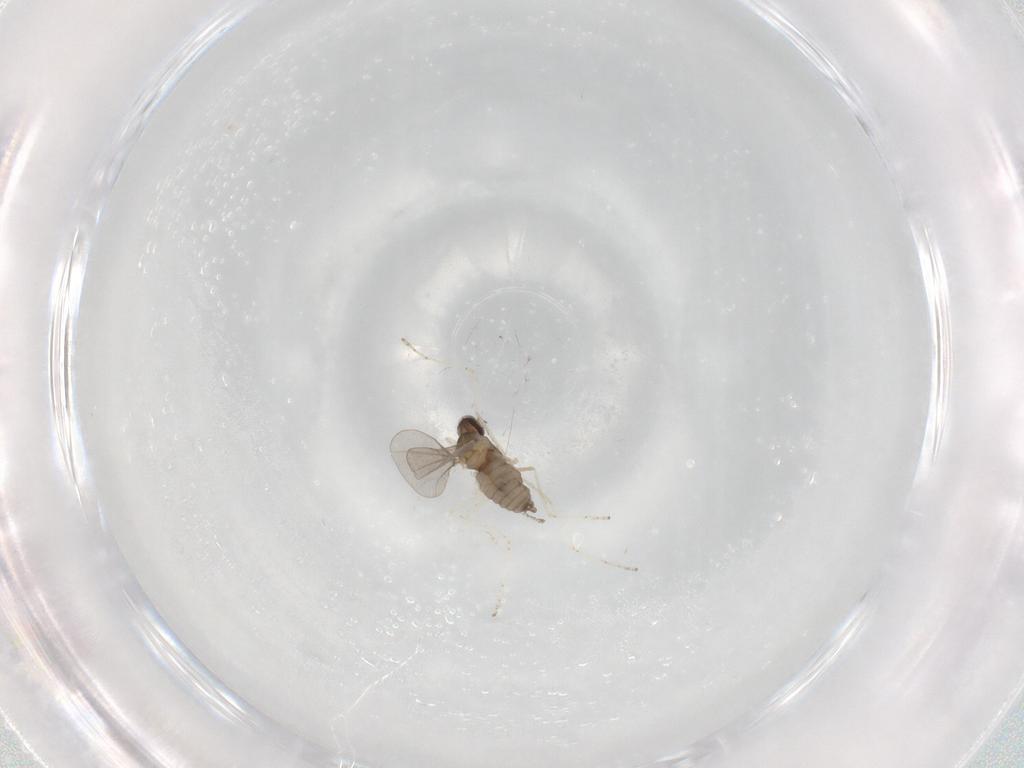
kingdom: Animalia
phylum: Arthropoda
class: Insecta
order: Diptera
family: Cecidomyiidae
